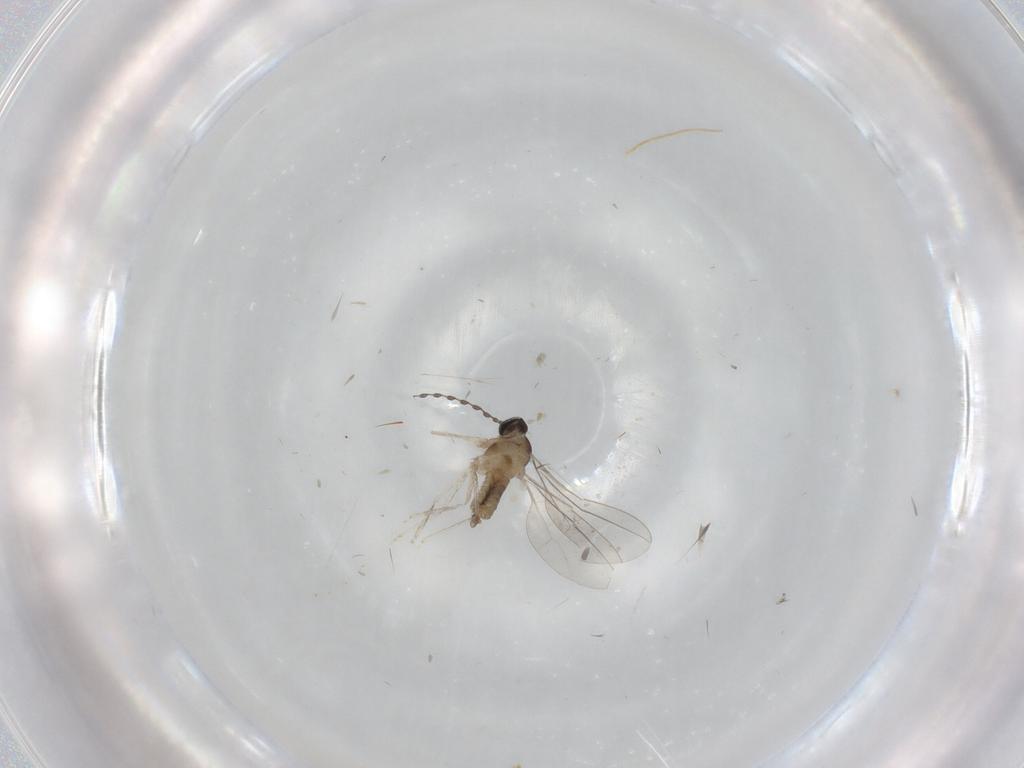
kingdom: Animalia
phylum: Arthropoda
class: Insecta
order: Diptera
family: Cecidomyiidae
